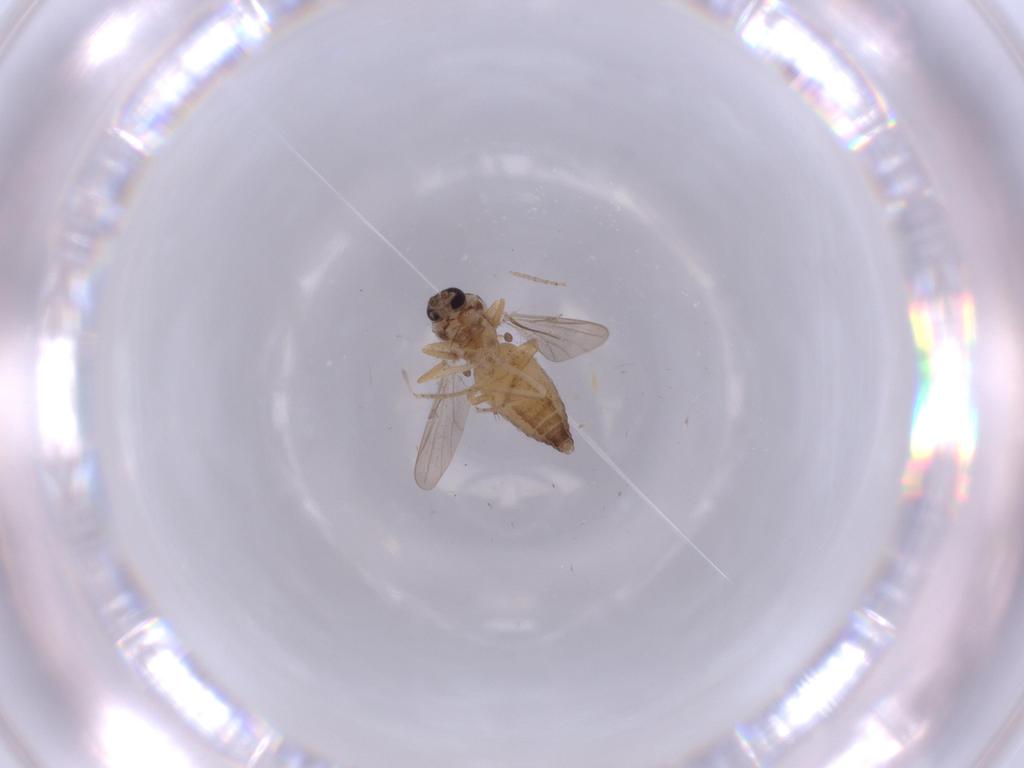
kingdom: Animalia
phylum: Arthropoda
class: Insecta
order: Diptera
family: Ceratopogonidae
